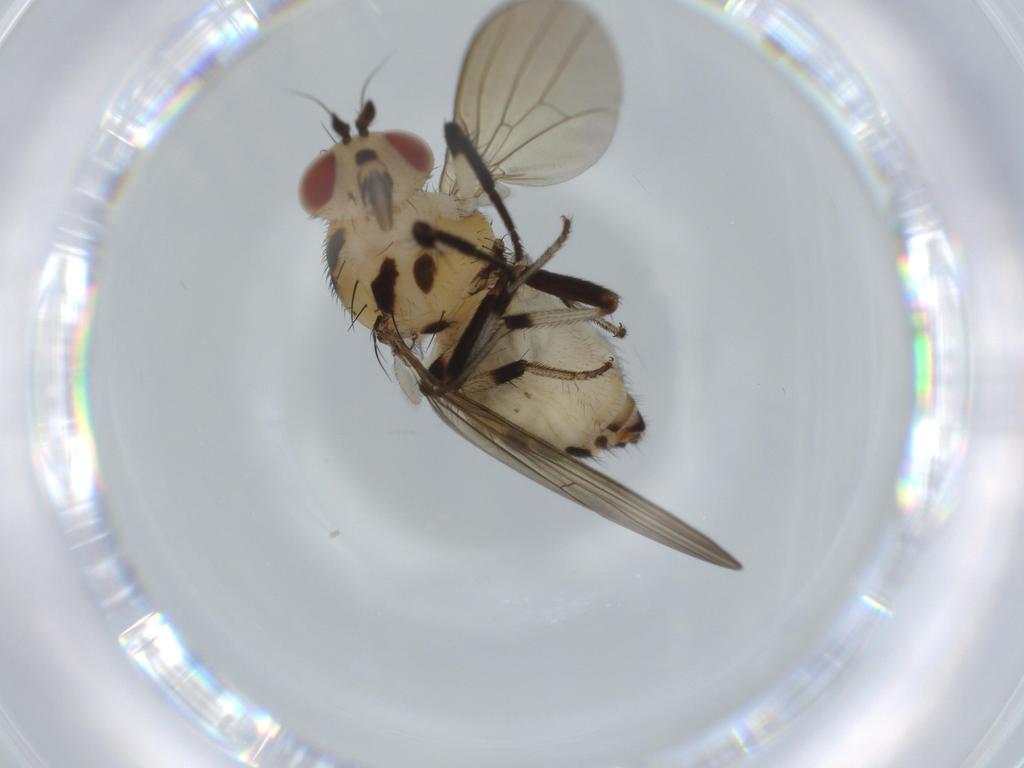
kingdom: Animalia
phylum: Arthropoda
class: Insecta
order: Diptera
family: Lauxaniidae
